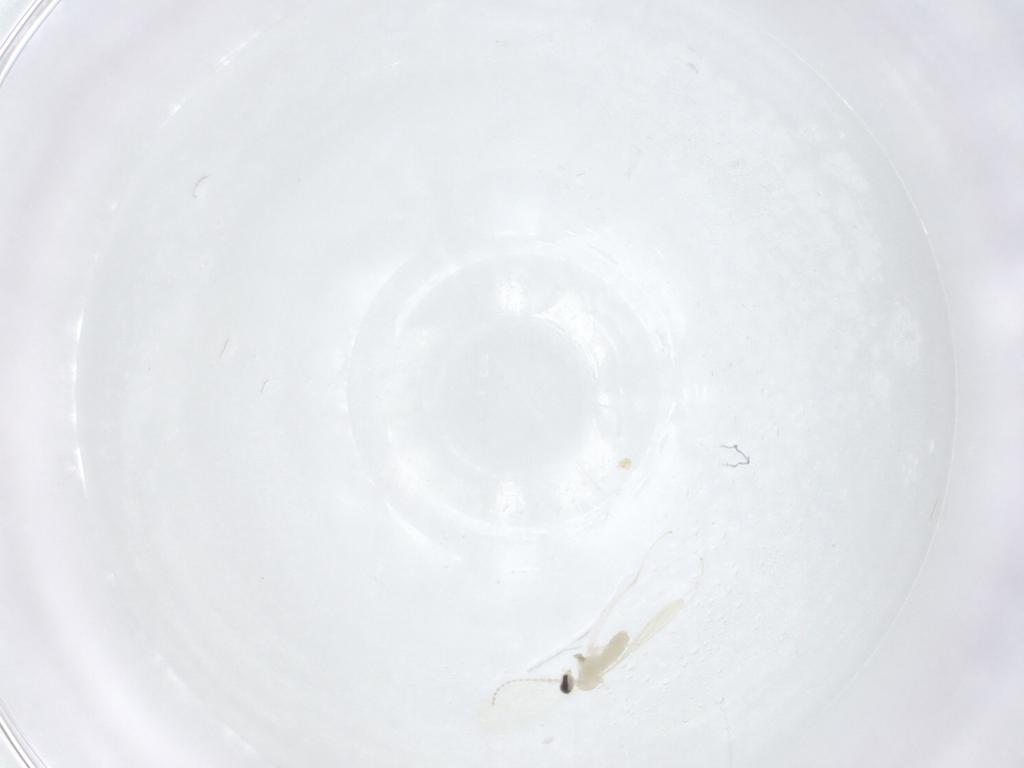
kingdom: Animalia
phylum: Arthropoda
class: Insecta
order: Diptera
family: Cecidomyiidae
